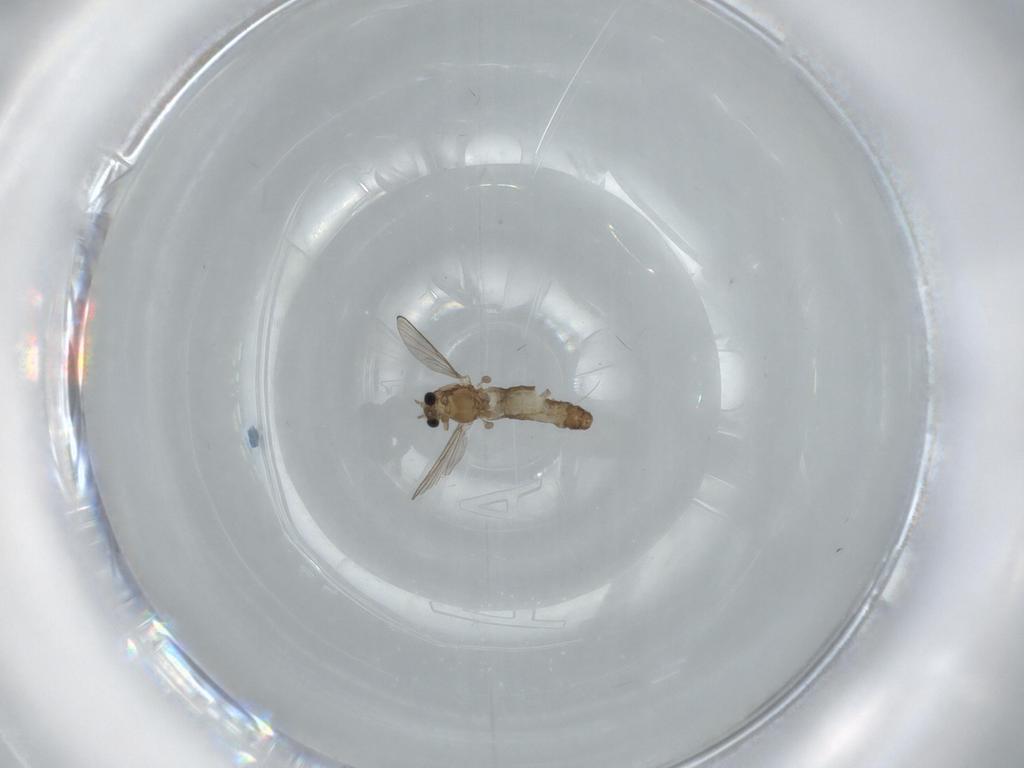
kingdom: Animalia
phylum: Arthropoda
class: Insecta
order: Diptera
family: Chironomidae
